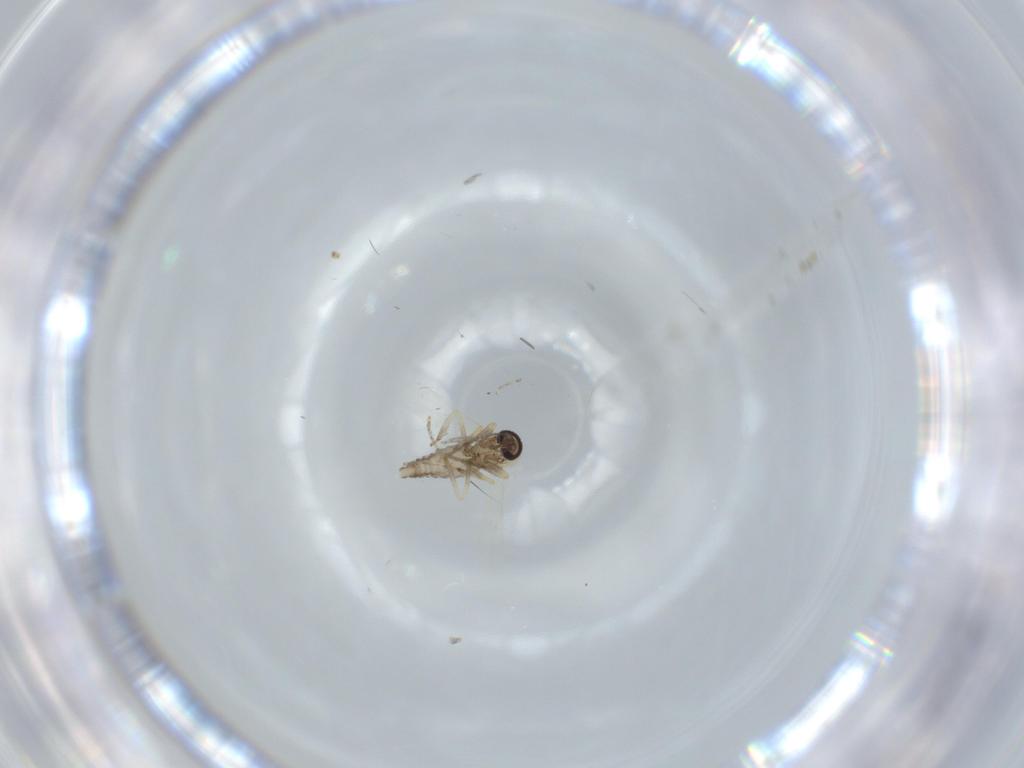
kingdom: Animalia
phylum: Arthropoda
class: Insecta
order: Diptera
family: Ceratopogonidae
